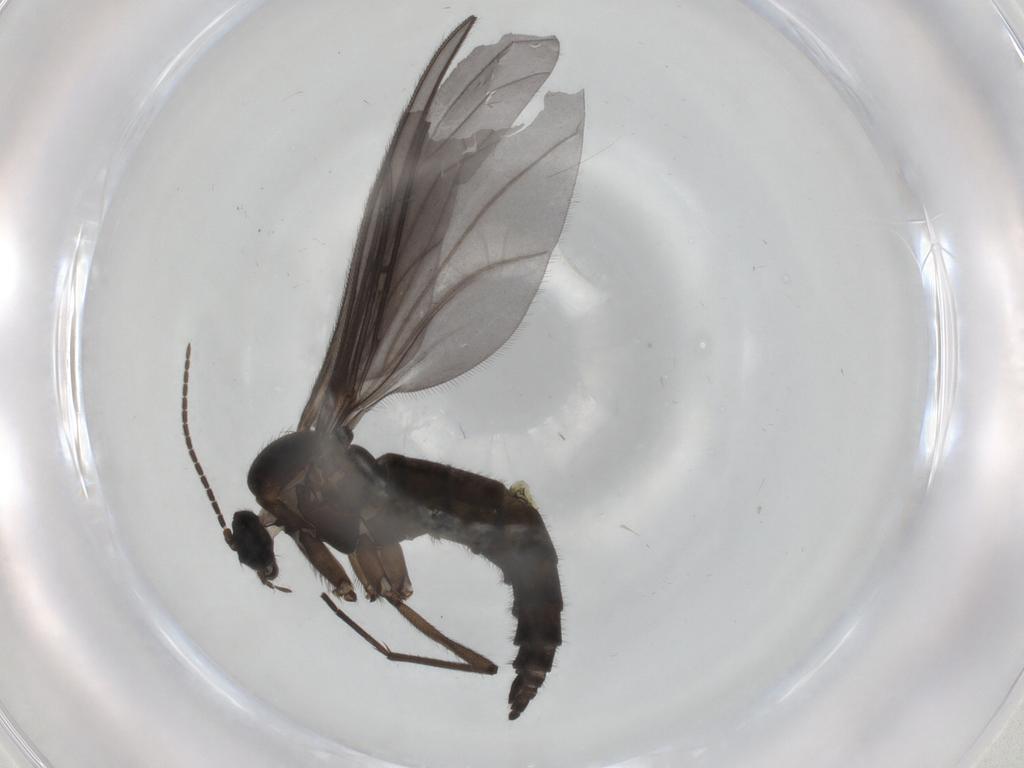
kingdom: Animalia
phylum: Arthropoda
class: Insecta
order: Diptera
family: Sciaridae
